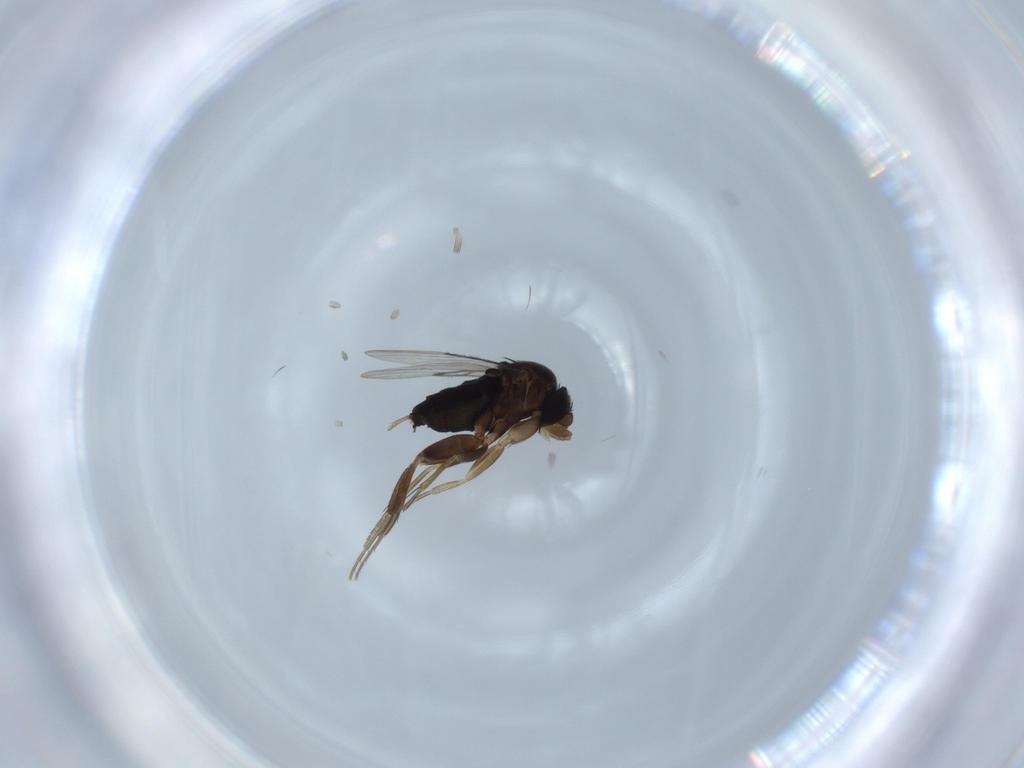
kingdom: Animalia
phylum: Arthropoda
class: Insecta
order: Diptera
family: Phoridae
